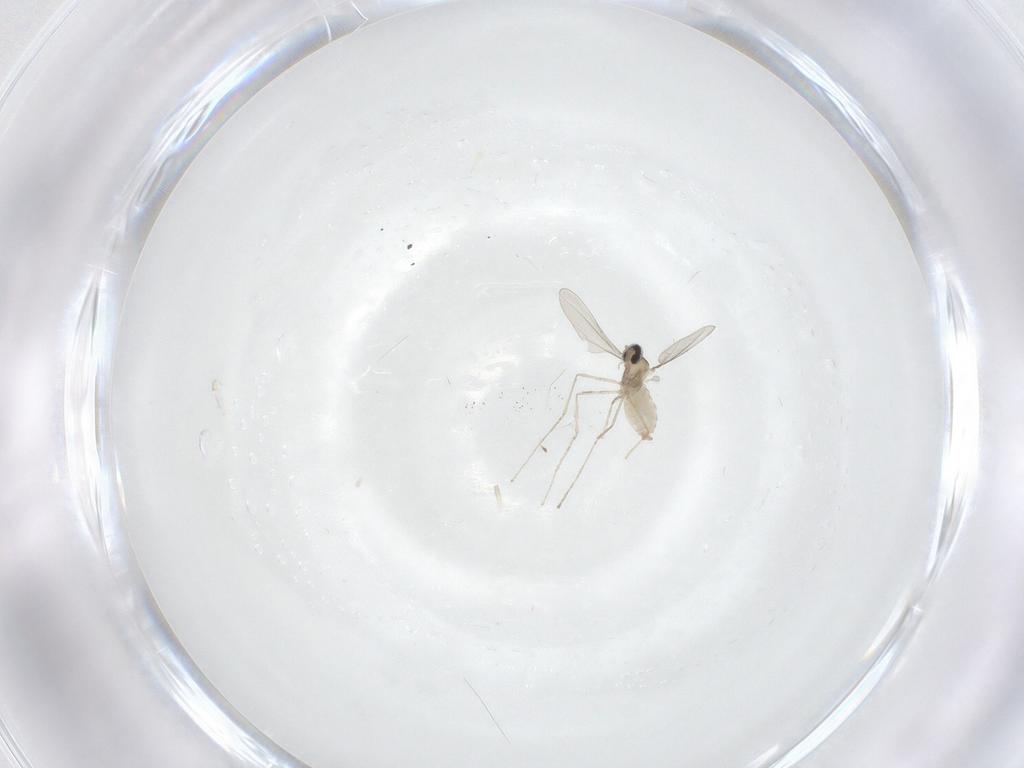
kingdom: Animalia
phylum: Arthropoda
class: Insecta
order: Diptera
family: Cecidomyiidae
